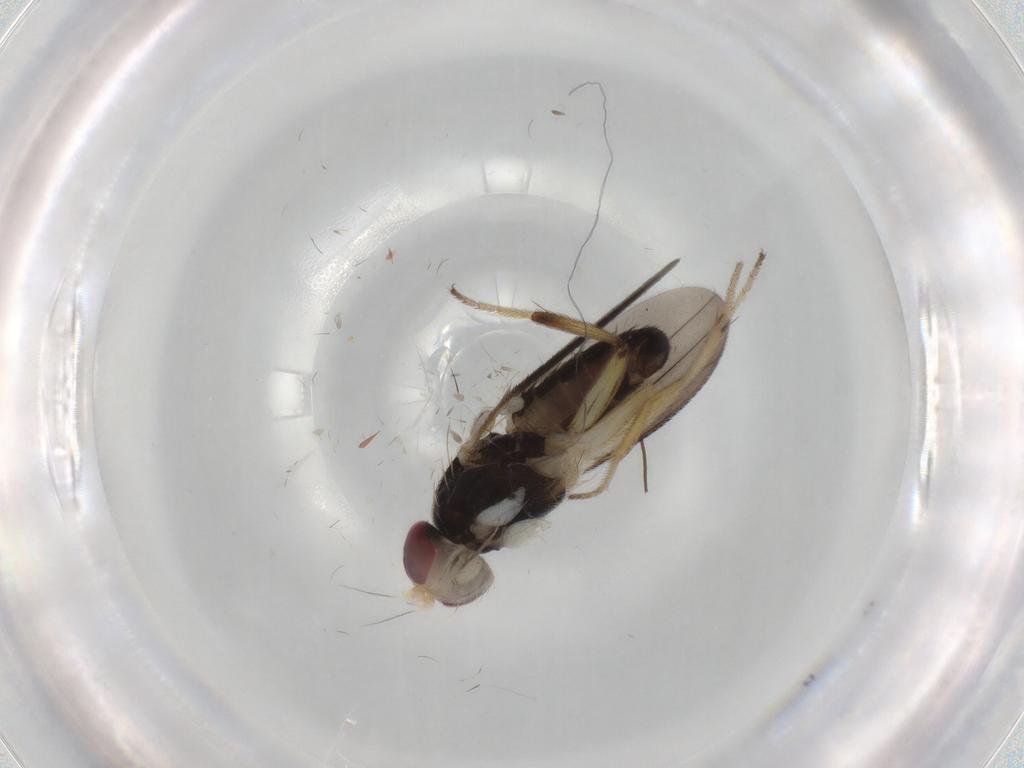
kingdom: Animalia
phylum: Arthropoda
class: Insecta
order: Diptera
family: Clusiidae
